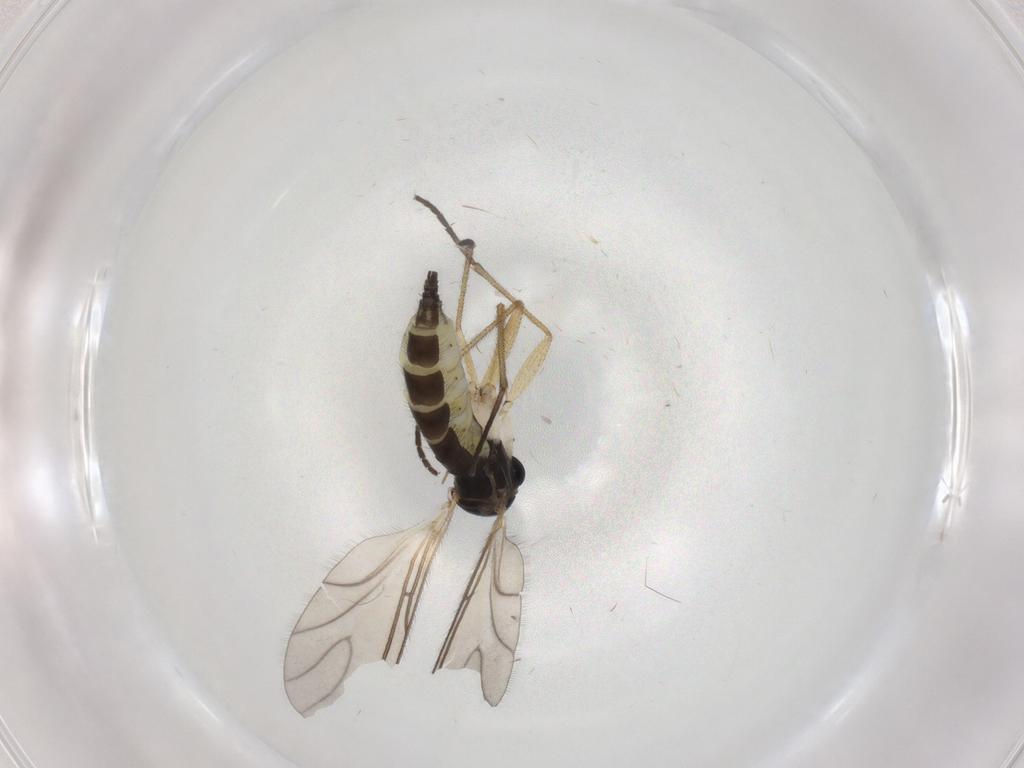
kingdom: Animalia
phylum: Arthropoda
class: Insecta
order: Diptera
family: Sciaridae
